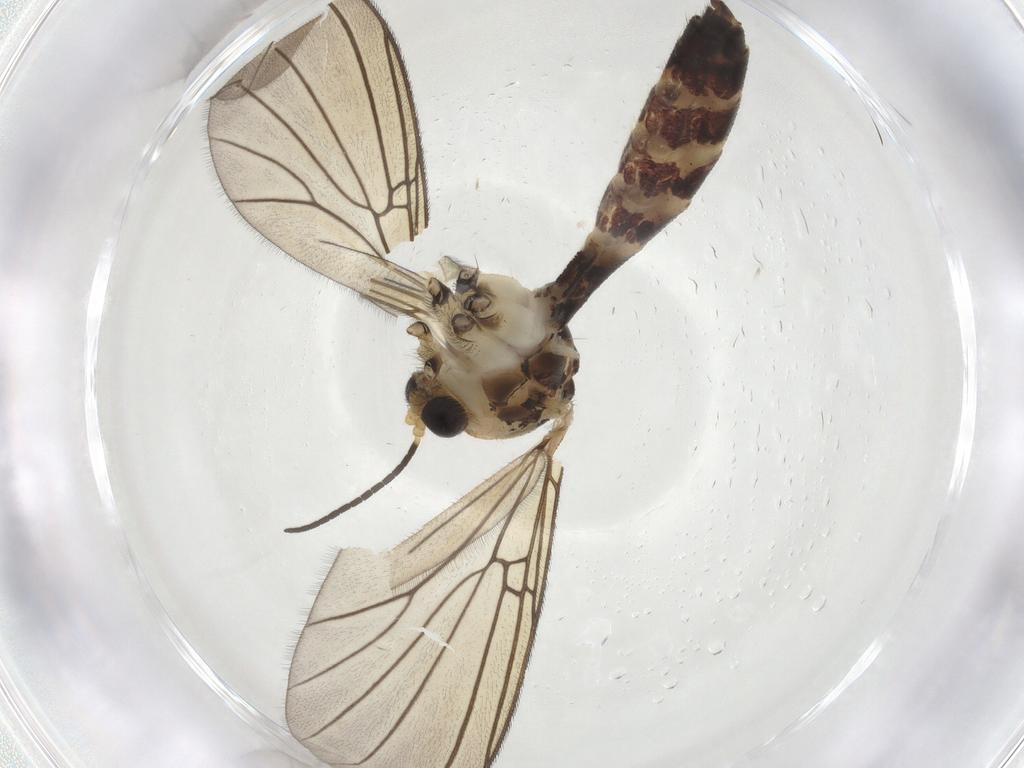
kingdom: Animalia
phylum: Arthropoda
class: Insecta
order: Diptera
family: Mycetophilidae
